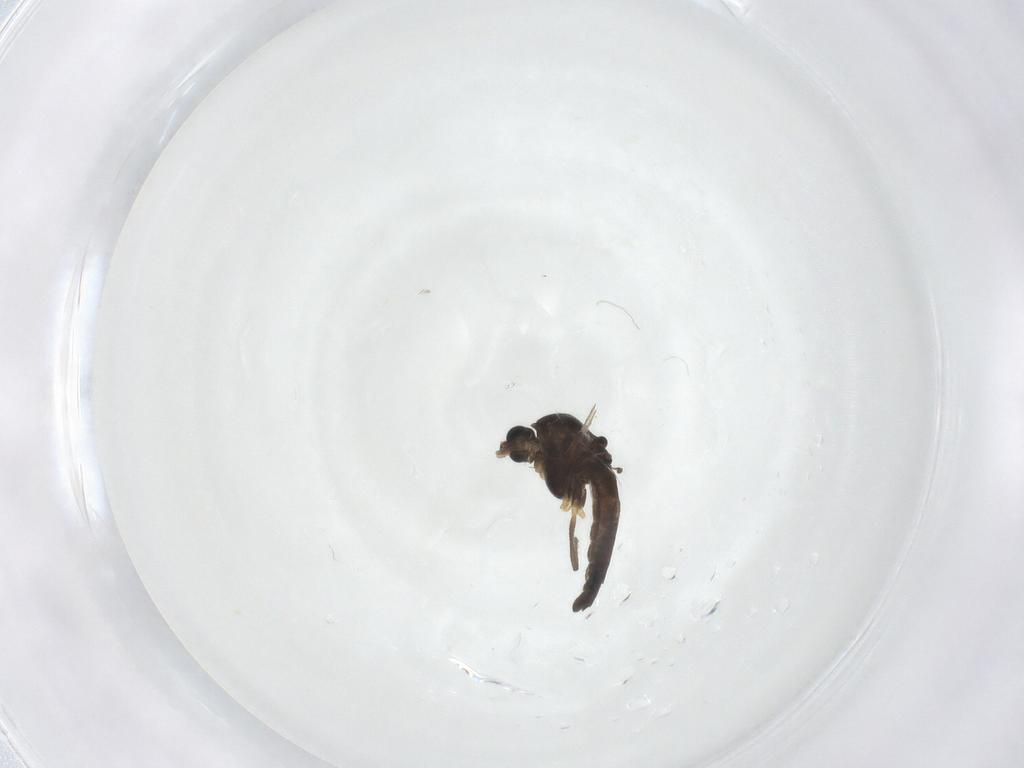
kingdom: Animalia
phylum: Arthropoda
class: Insecta
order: Diptera
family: Chironomidae
